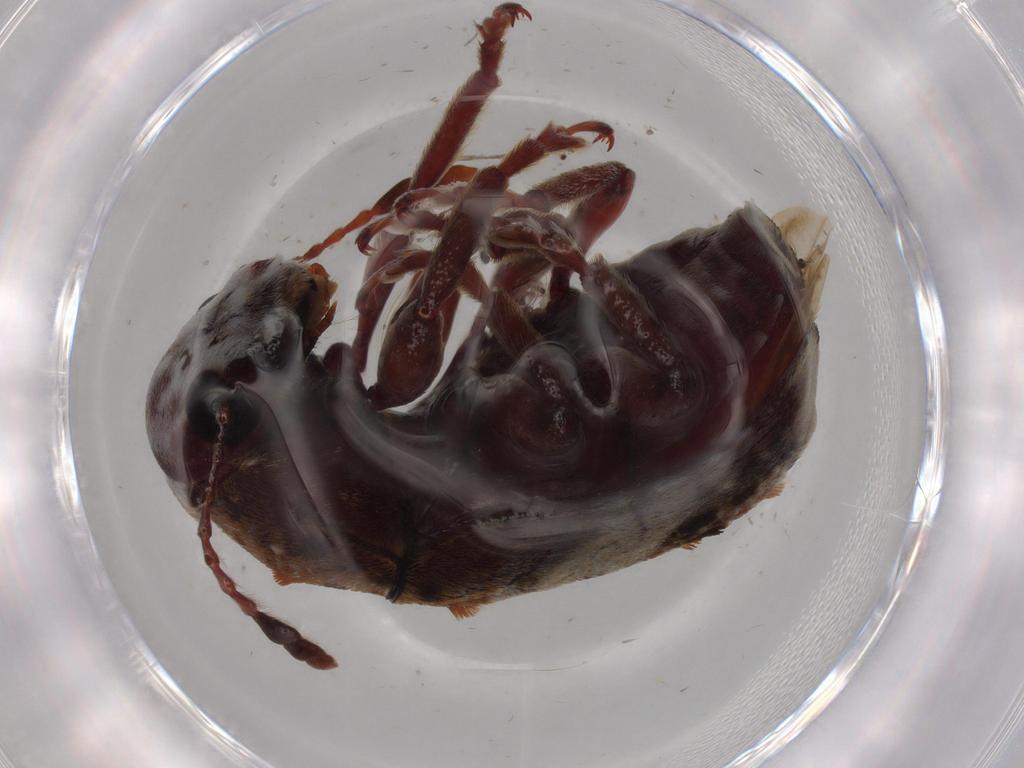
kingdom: Animalia
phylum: Arthropoda
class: Insecta
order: Coleoptera
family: Anthribidae
